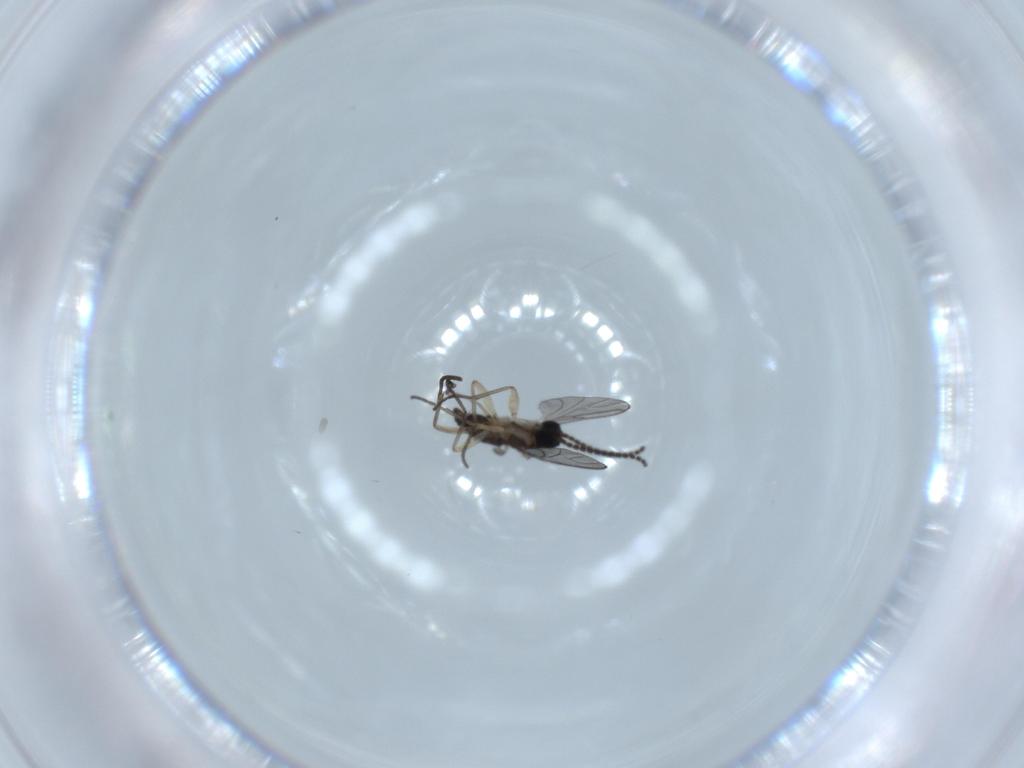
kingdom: Animalia
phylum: Arthropoda
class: Insecta
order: Diptera
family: Sciaridae
